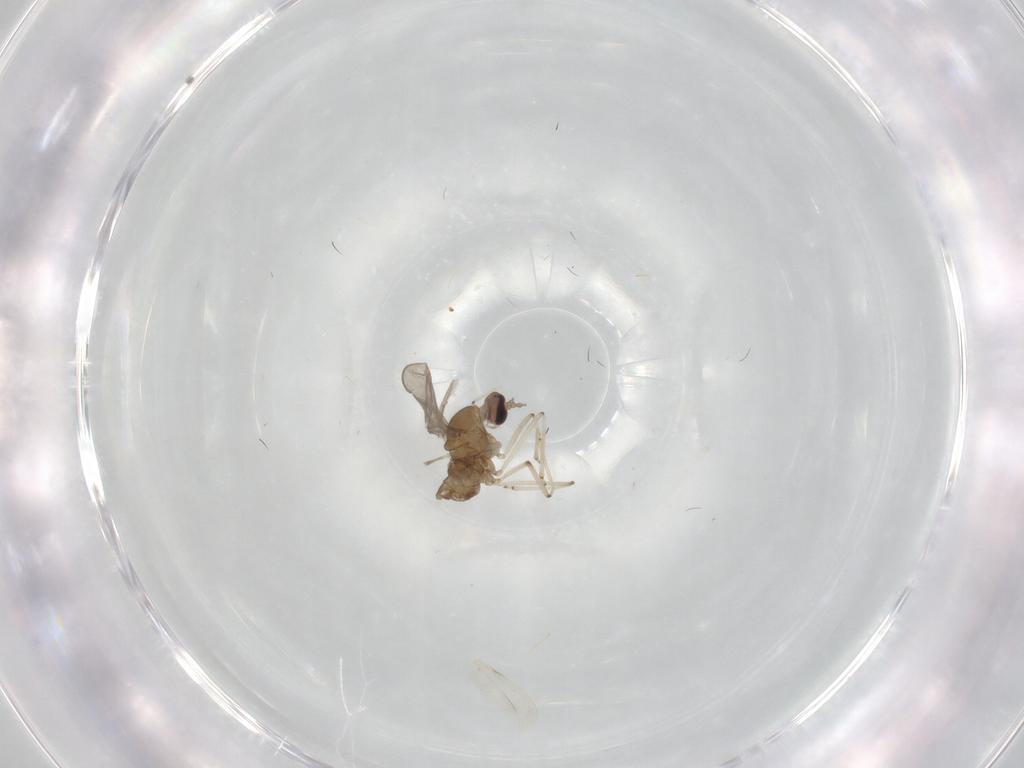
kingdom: Animalia
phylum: Arthropoda
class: Insecta
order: Diptera
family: Cecidomyiidae
